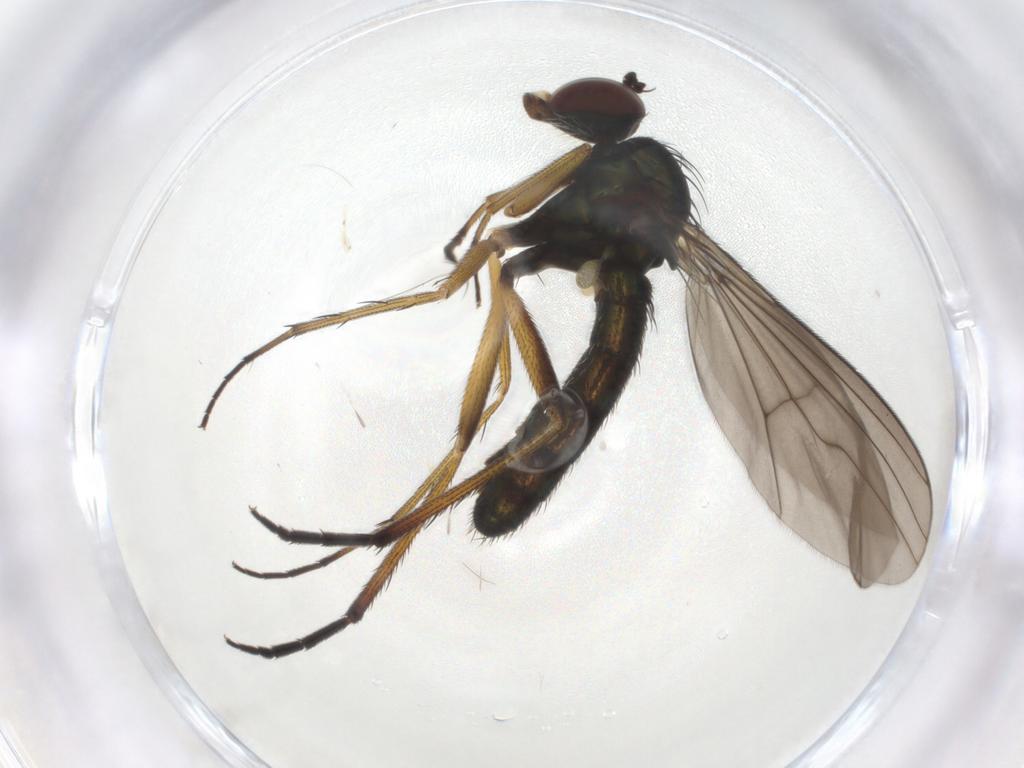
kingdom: Animalia
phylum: Arthropoda
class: Insecta
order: Diptera
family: Dolichopodidae
